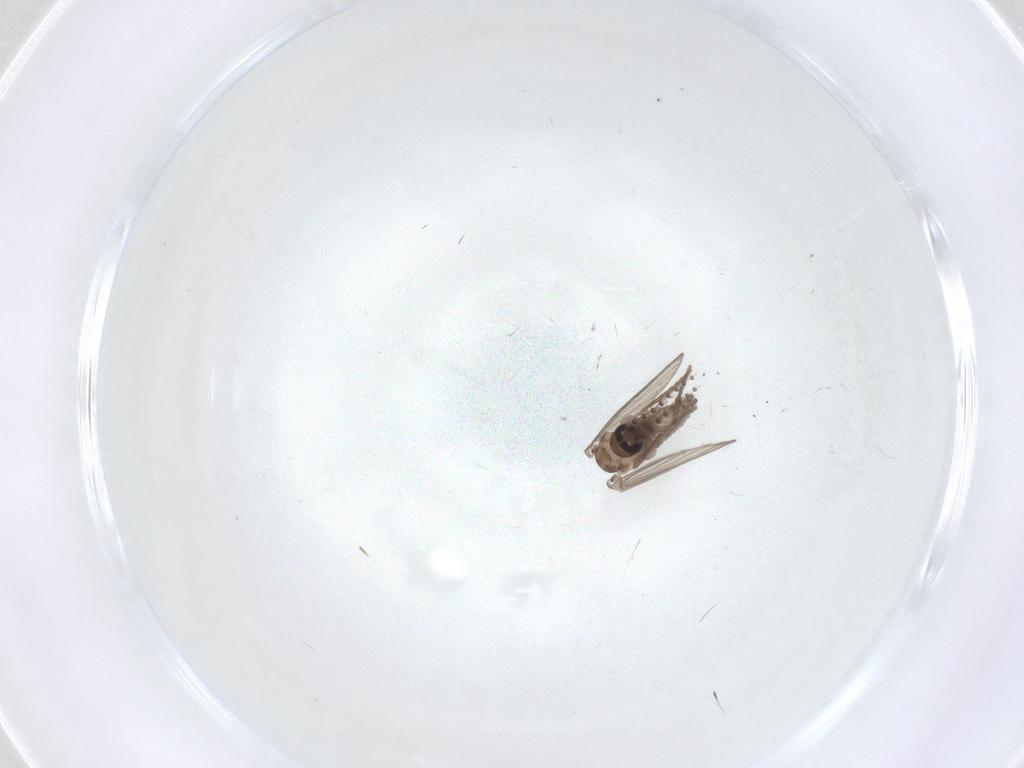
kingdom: Animalia
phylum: Arthropoda
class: Insecta
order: Diptera
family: Psychodidae
